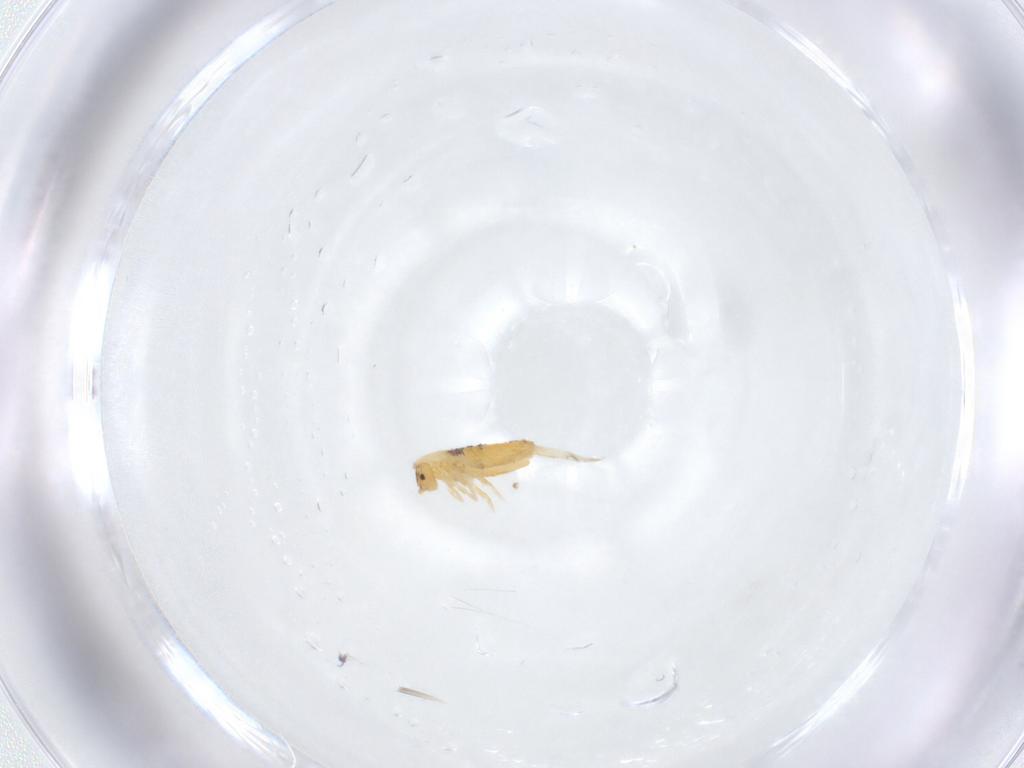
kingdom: Animalia
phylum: Arthropoda
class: Collembola
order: Entomobryomorpha
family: Entomobryidae
